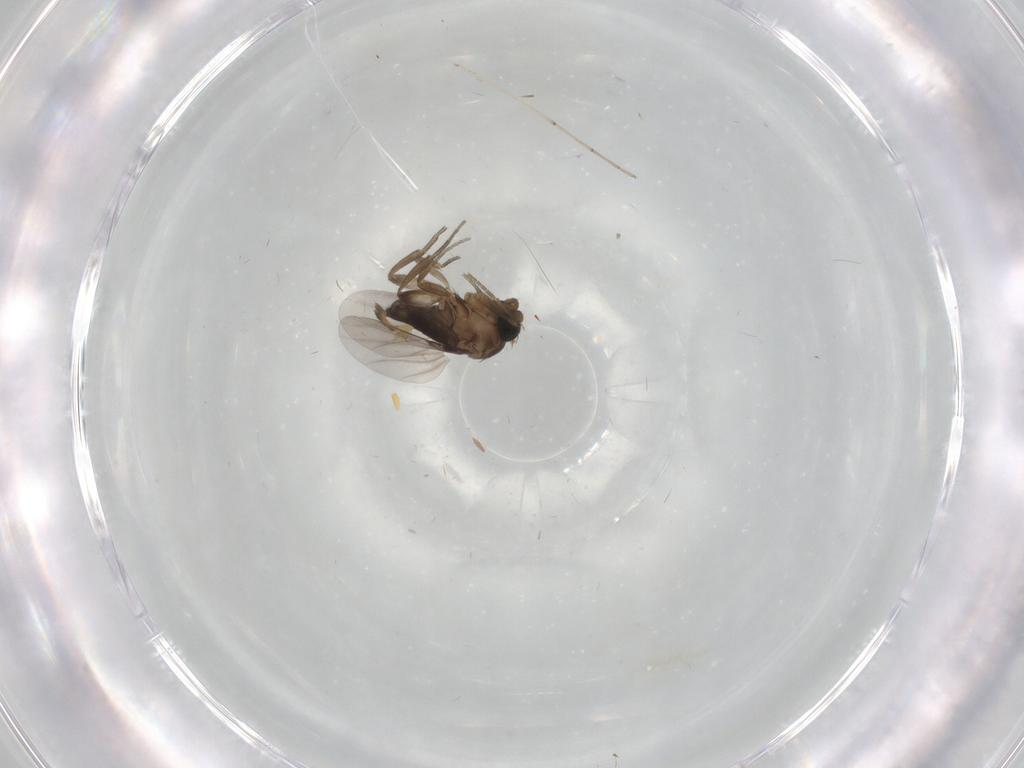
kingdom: Animalia
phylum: Arthropoda
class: Insecta
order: Diptera
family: Phoridae
